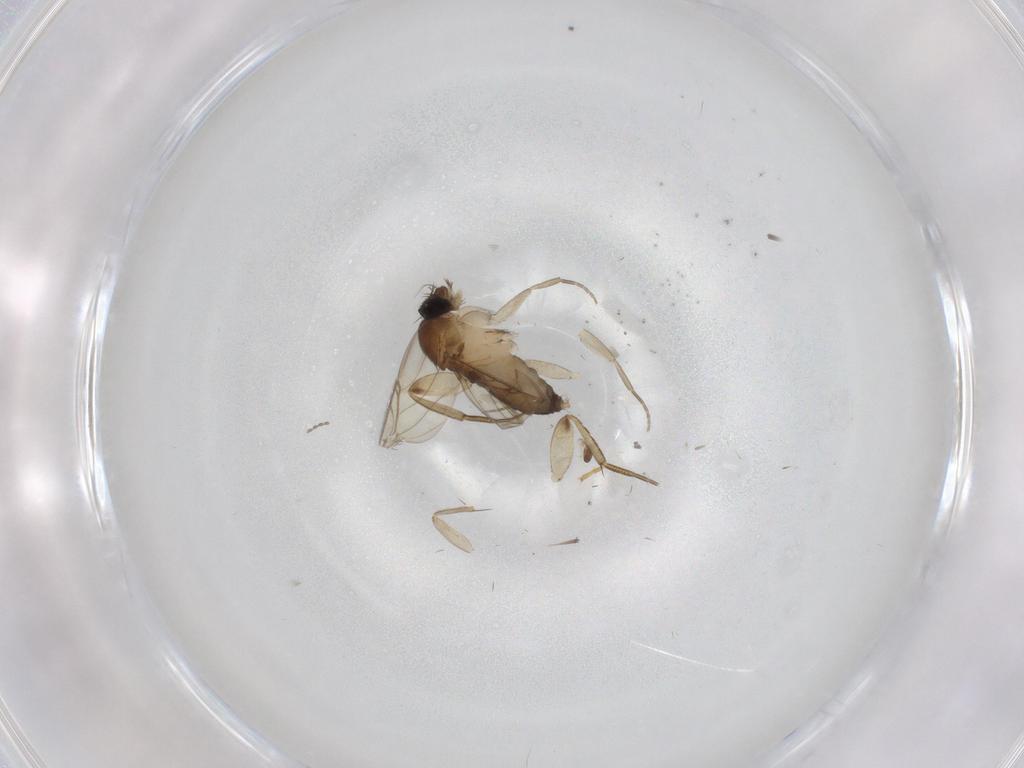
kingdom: Animalia
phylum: Arthropoda
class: Insecta
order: Diptera
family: Phoridae
